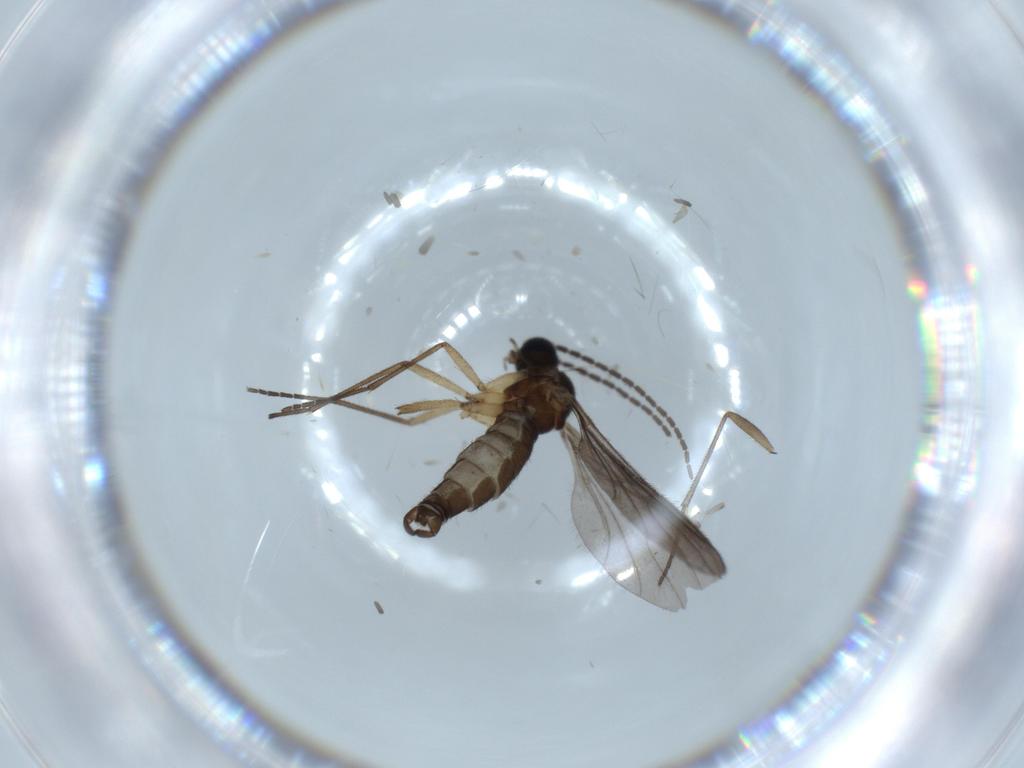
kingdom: Animalia
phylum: Arthropoda
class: Insecta
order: Diptera
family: Sciaridae
